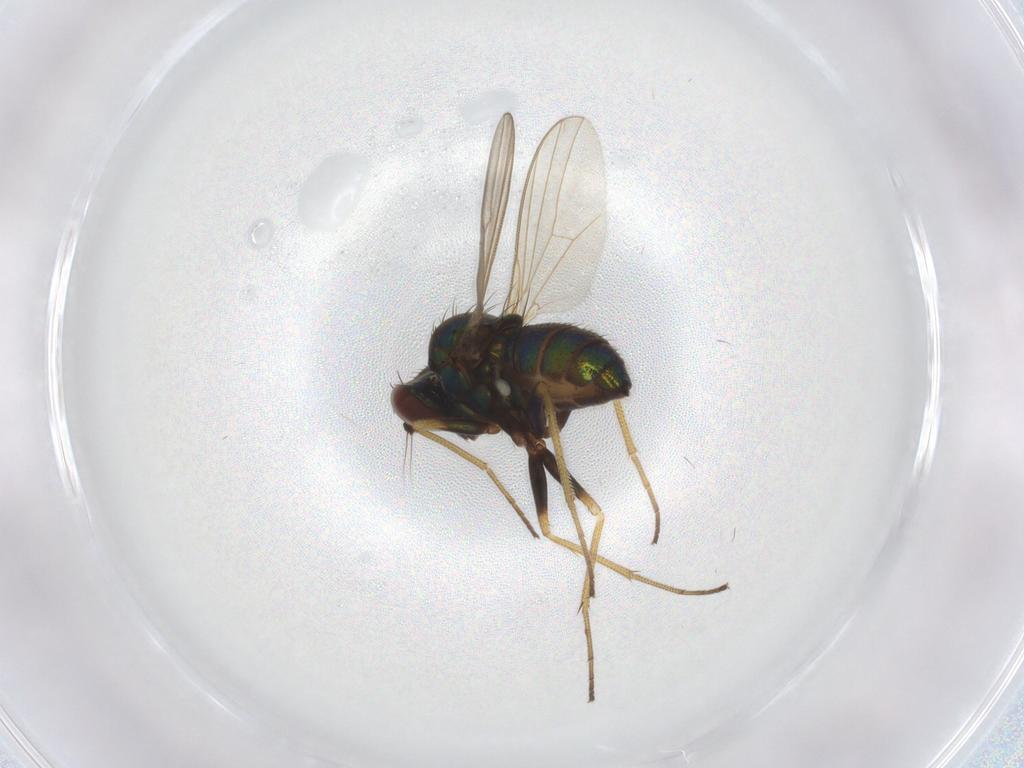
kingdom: Animalia
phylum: Arthropoda
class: Insecta
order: Diptera
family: Dolichopodidae
